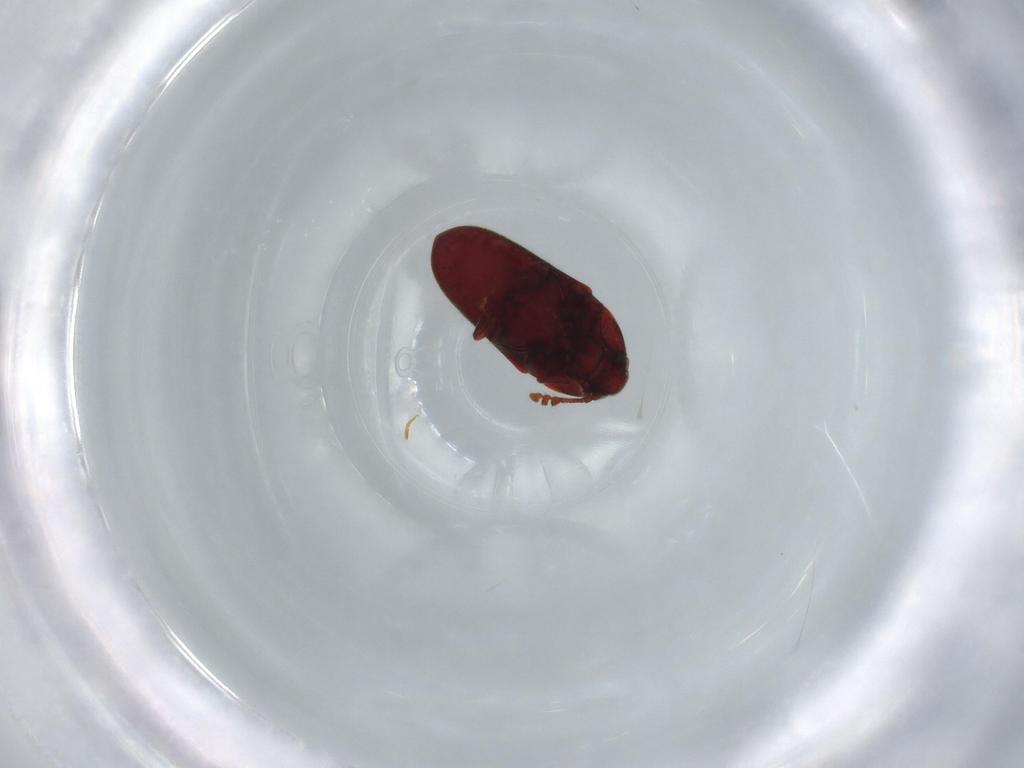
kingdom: Animalia
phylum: Arthropoda
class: Insecta
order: Coleoptera
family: Throscidae
